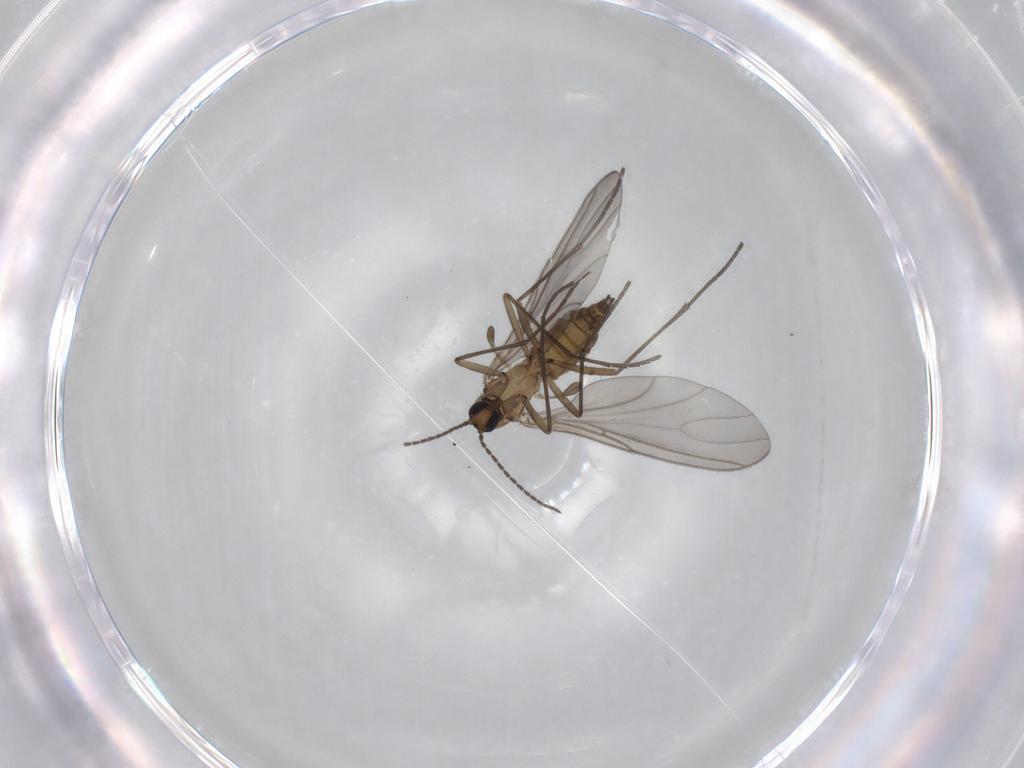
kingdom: Animalia
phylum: Arthropoda
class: Insecta
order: Diptera
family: Sciaridae
